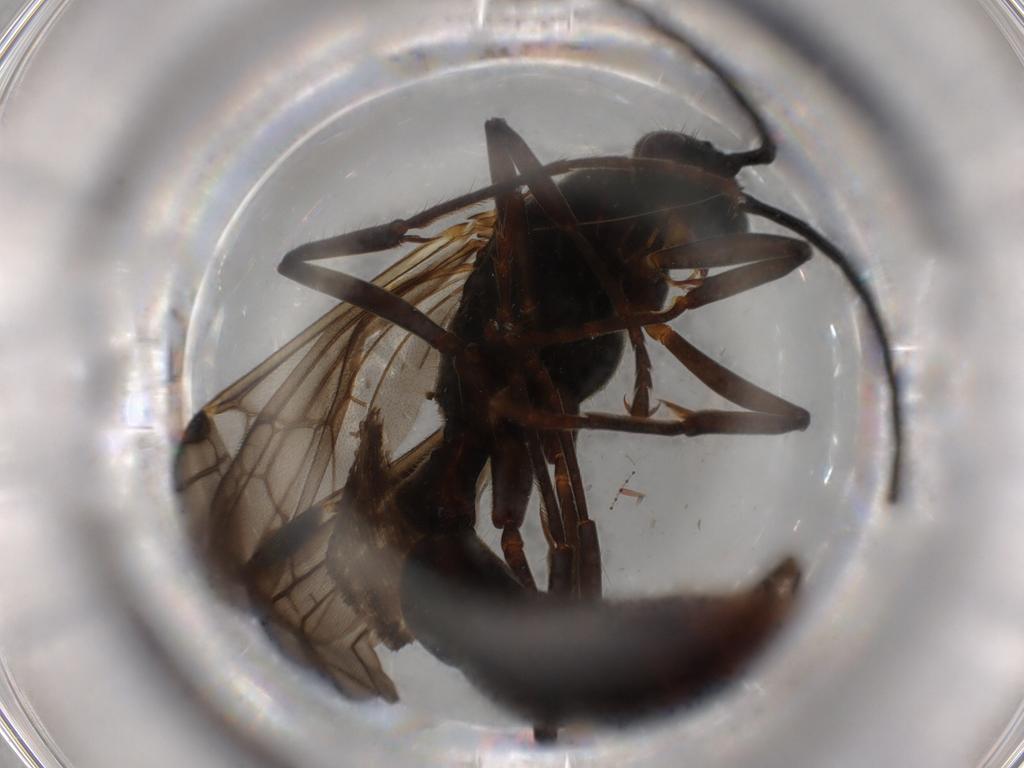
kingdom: Animalia
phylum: Arthropoda
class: Insecta
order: Hymenoptera
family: Formicidae
